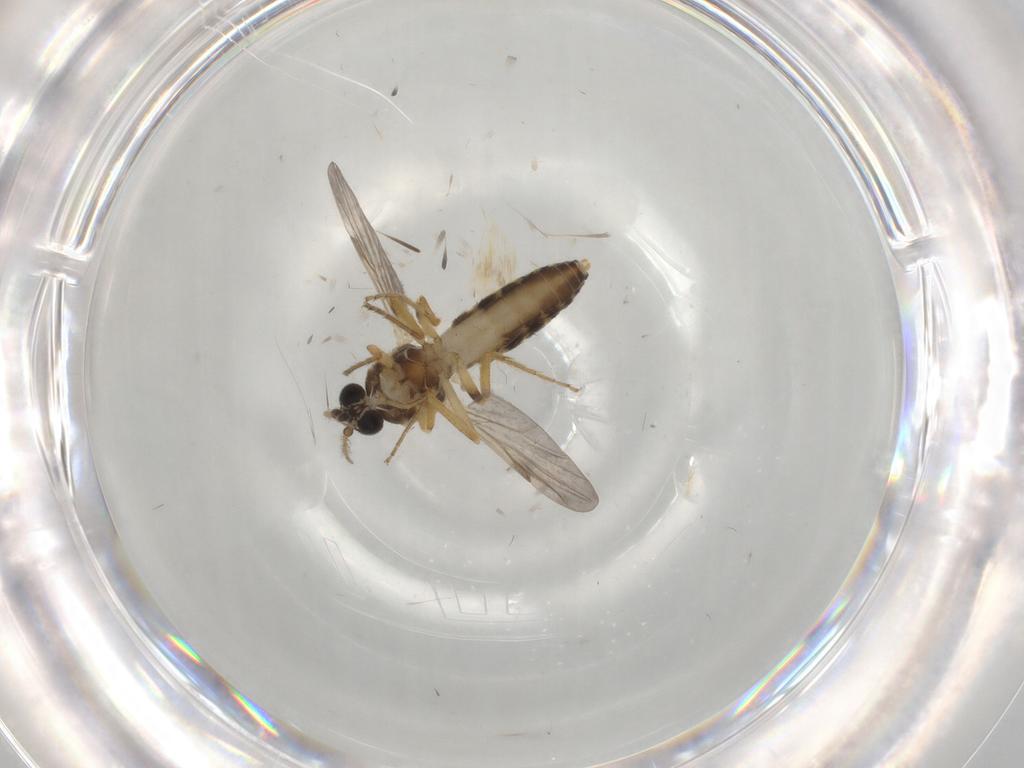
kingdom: Animalia
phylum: Arthropoda
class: Insecta
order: Diptera
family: Ceratopogonidae
